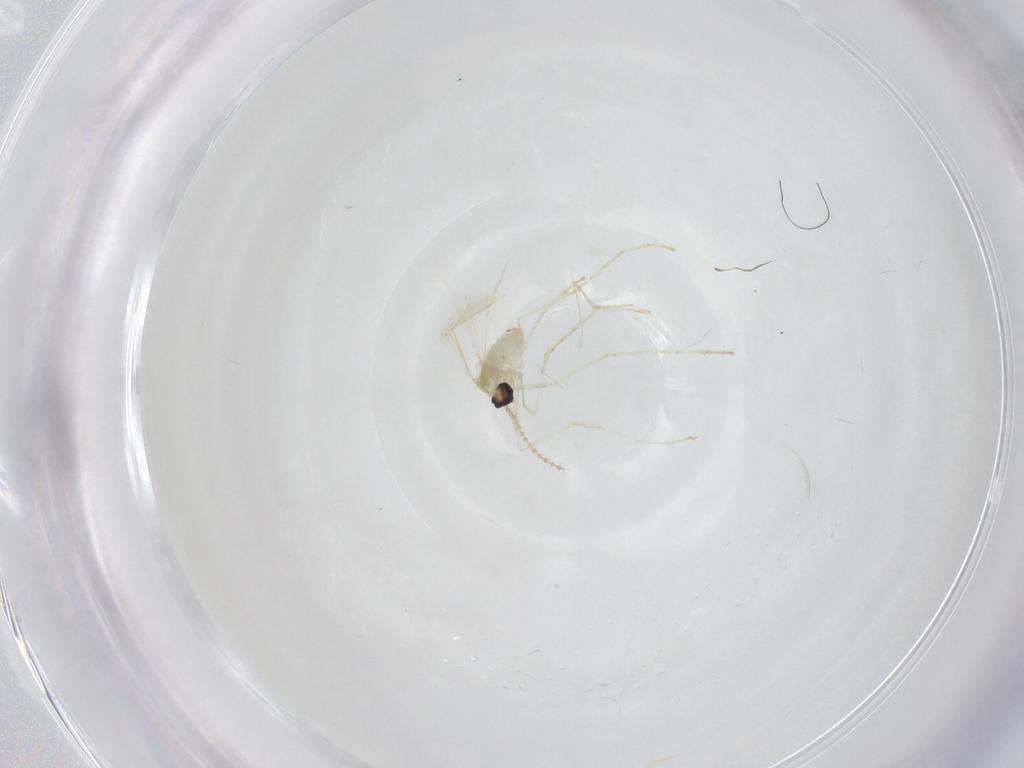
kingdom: Animalia
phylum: Arthropoda
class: Insecta
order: Diptera
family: Cecidomyiidae
